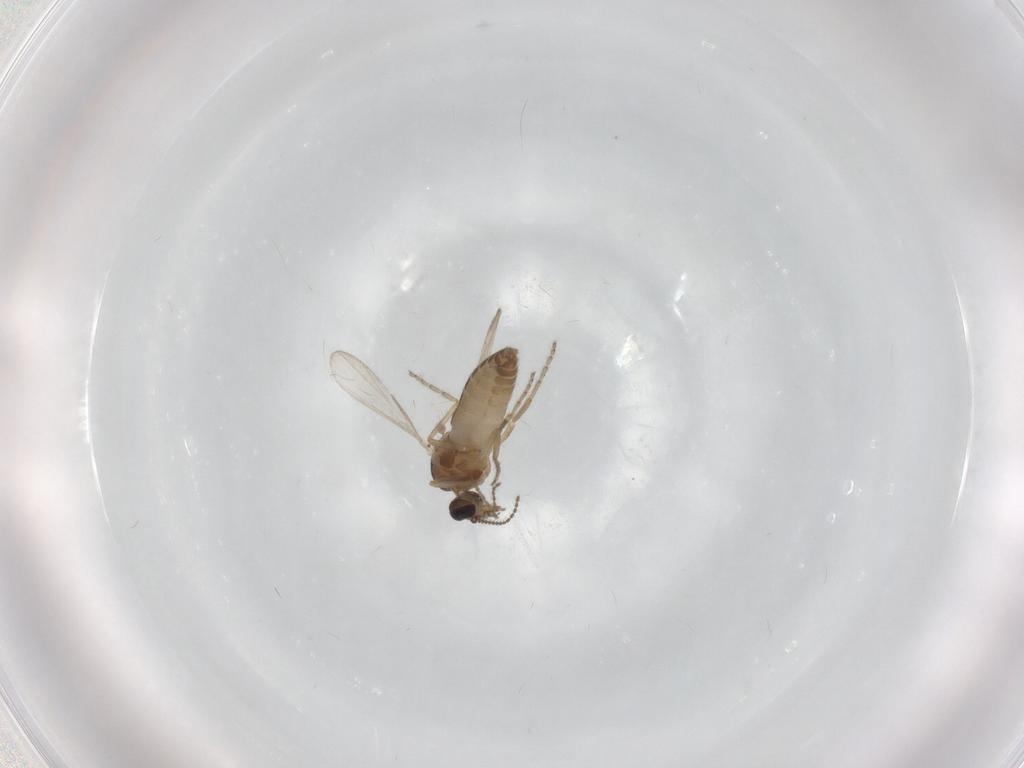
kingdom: Animalia
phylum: Arthropoda
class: Insecta
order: Diptera
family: Ceratopogonidae
